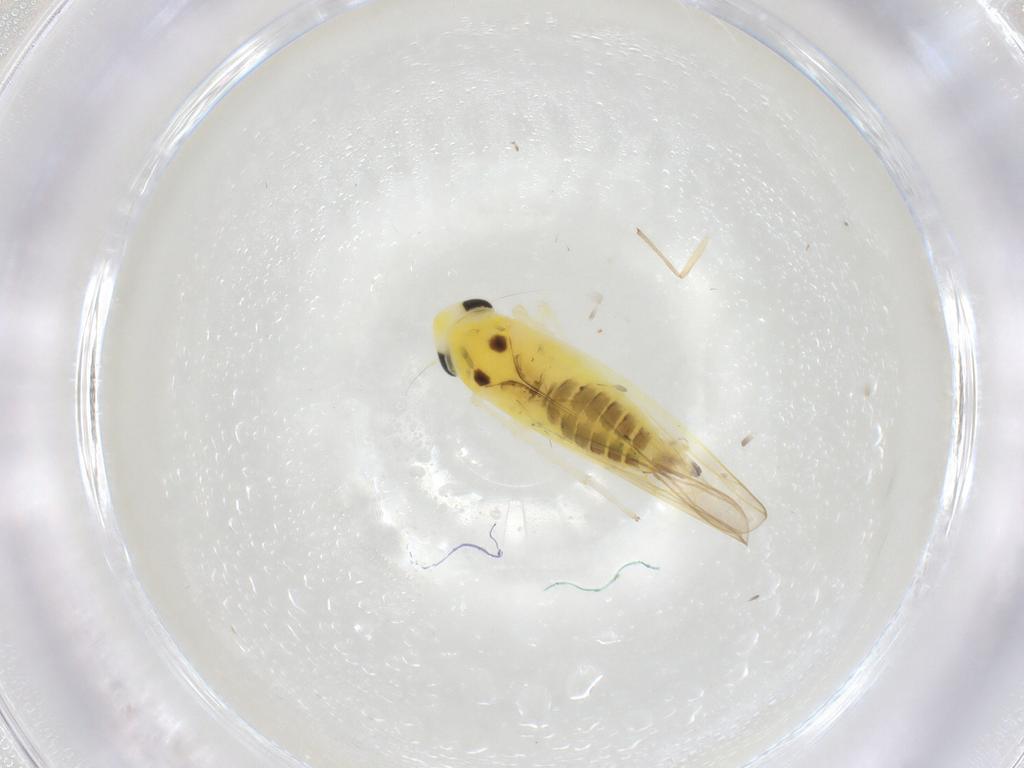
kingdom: Animalia
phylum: Arthropoda
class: Insecta
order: Hemiptera
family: Cicadellidae
